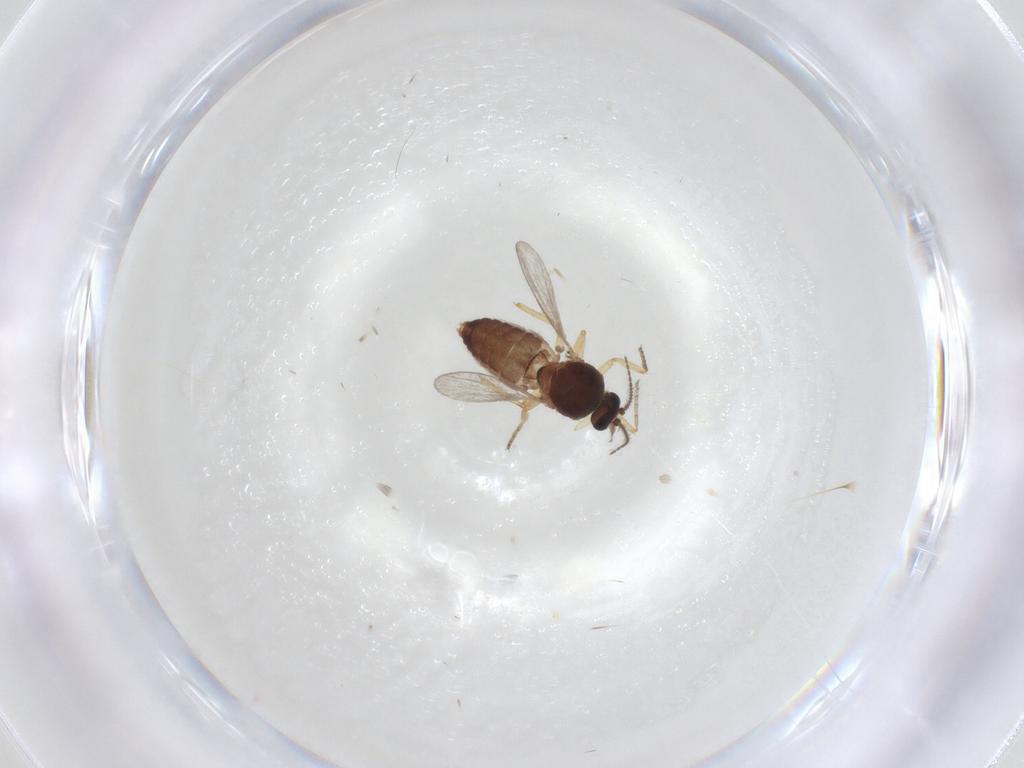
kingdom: Animalia
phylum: Arthropoda
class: Insecta
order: Diptera
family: Ceratopogonidae
